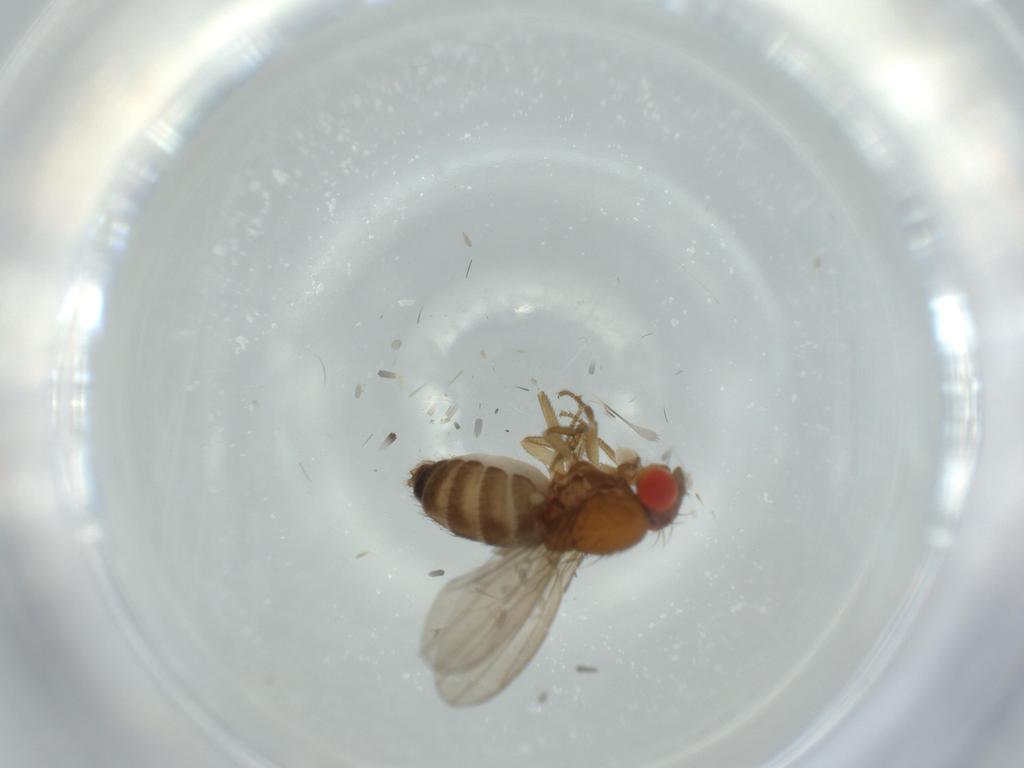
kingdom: Animalia
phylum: Arthropoda
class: Insecta
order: Diptera
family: Drosophilidae
